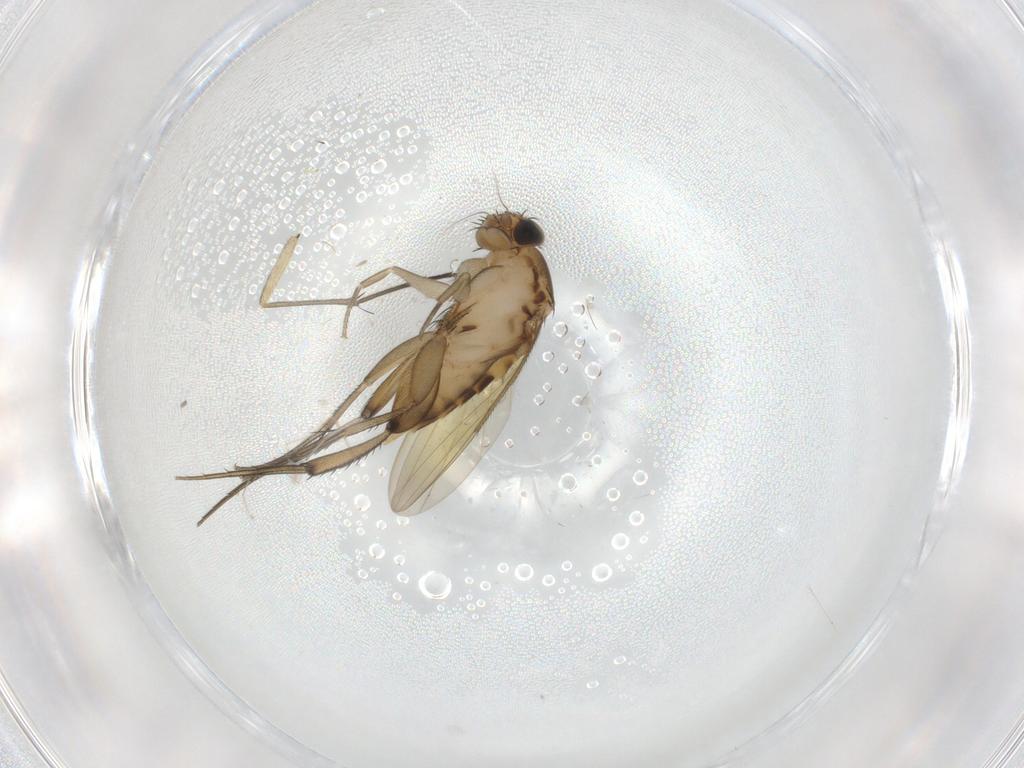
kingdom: Animalia
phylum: Arthropoda
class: Insecta
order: Diptera
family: Phoridae
